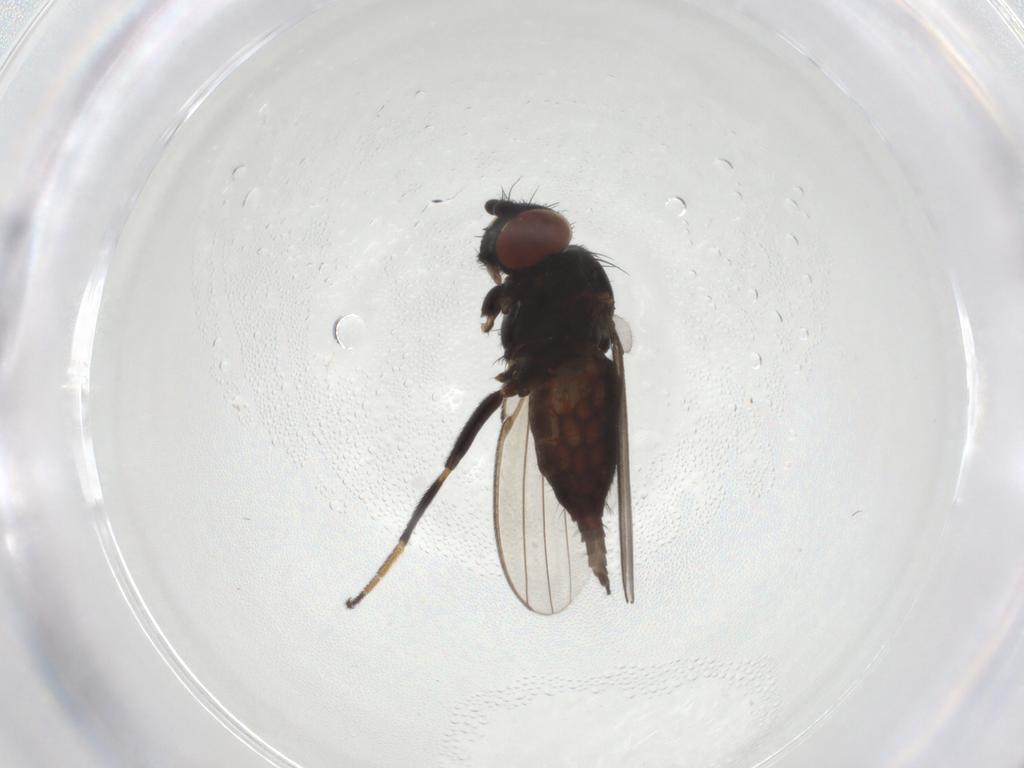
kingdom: Animalia
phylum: Arthropoda
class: Insecta
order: Diptera
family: Milichiidae
